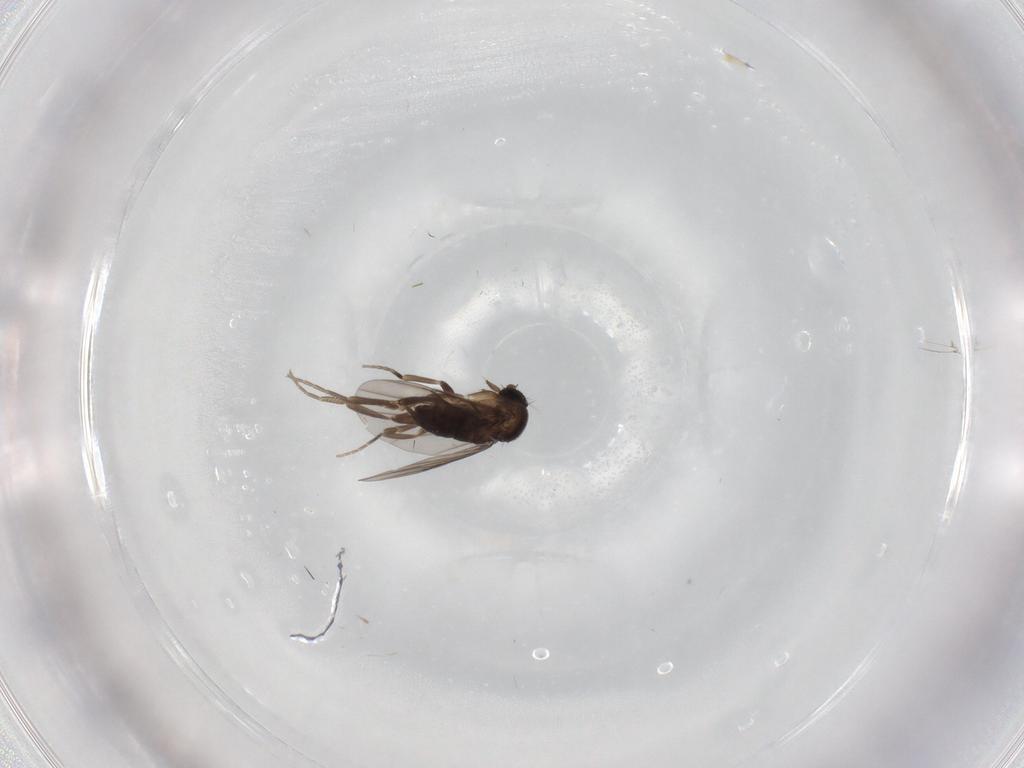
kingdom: Animalia
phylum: Arthropoda
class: Insecta
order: Diptera
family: Phoridae
